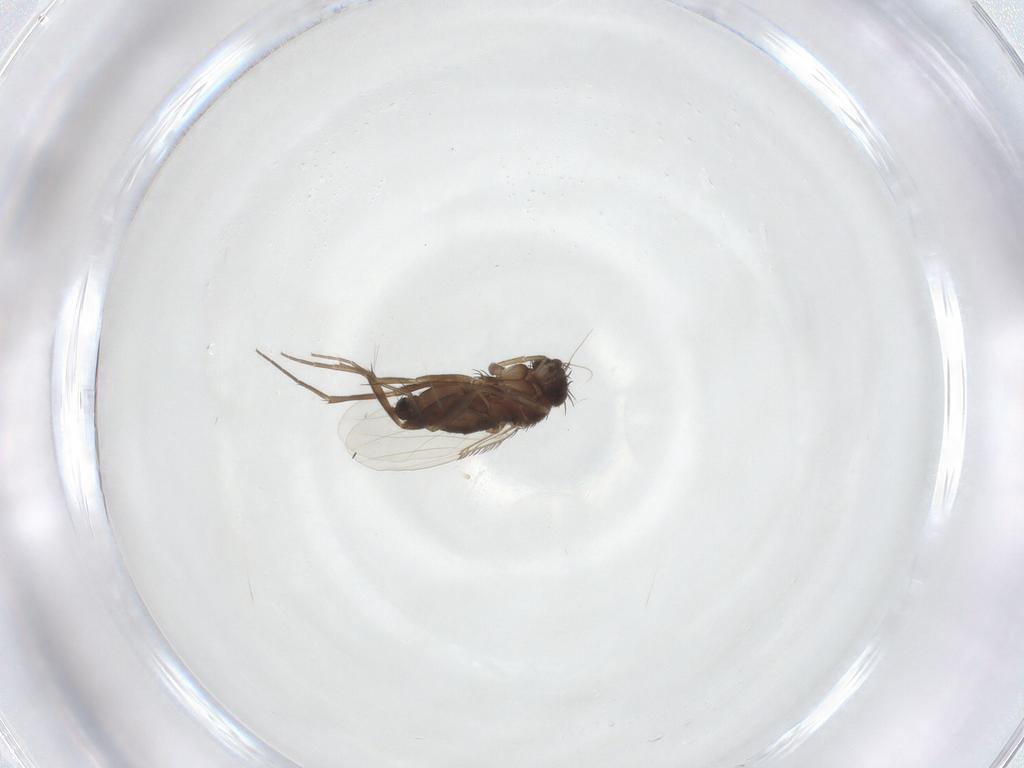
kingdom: Animalia
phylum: Arthropoda
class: Insecta
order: Diptera
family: Phoridae
